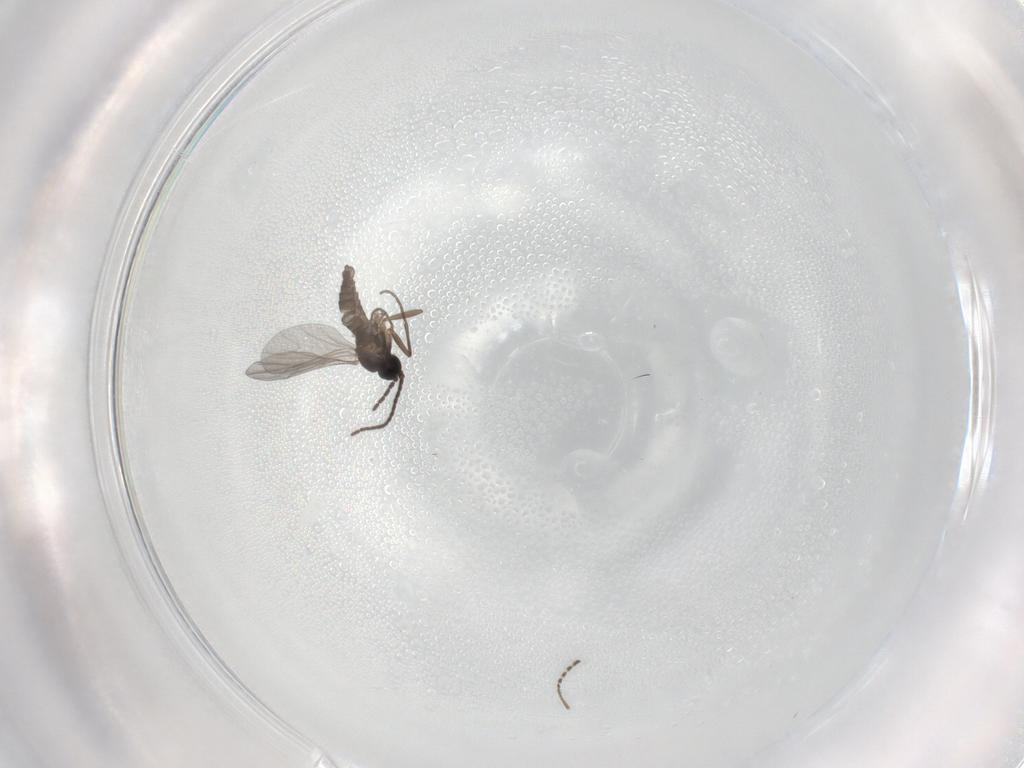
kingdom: Animalia
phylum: Arthropoda
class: Insecta
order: Diptera
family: Sciaridae
